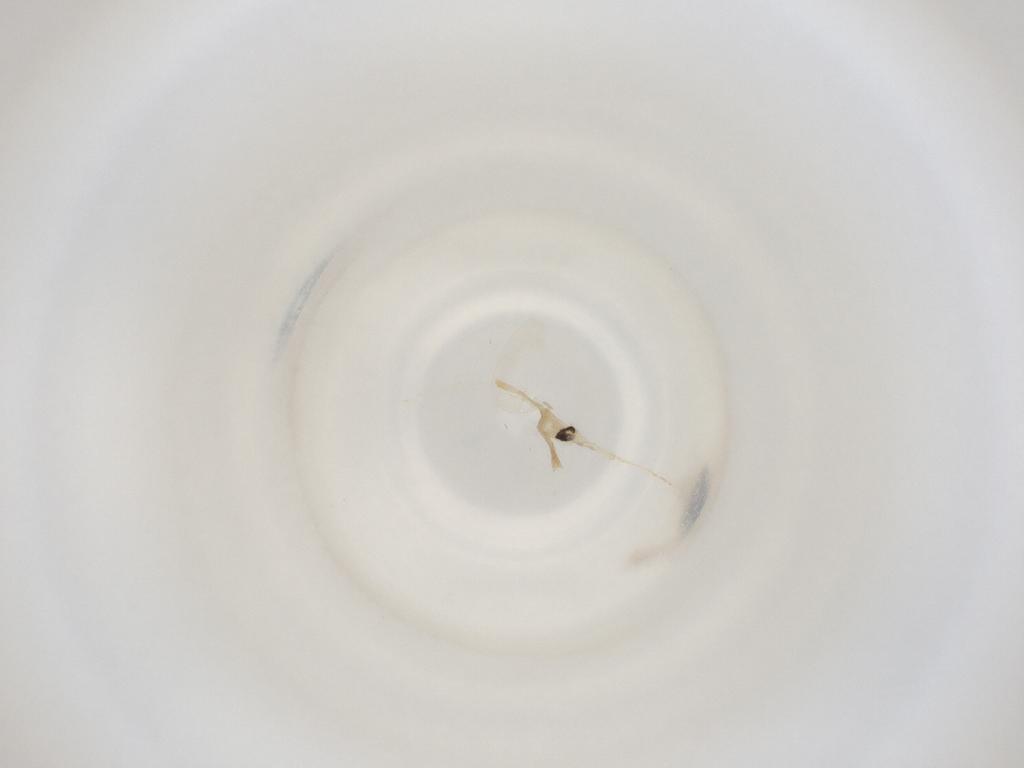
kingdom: Animalia
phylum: Arthropoda
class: Insecta
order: Diptera
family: Cecidomyiidae
